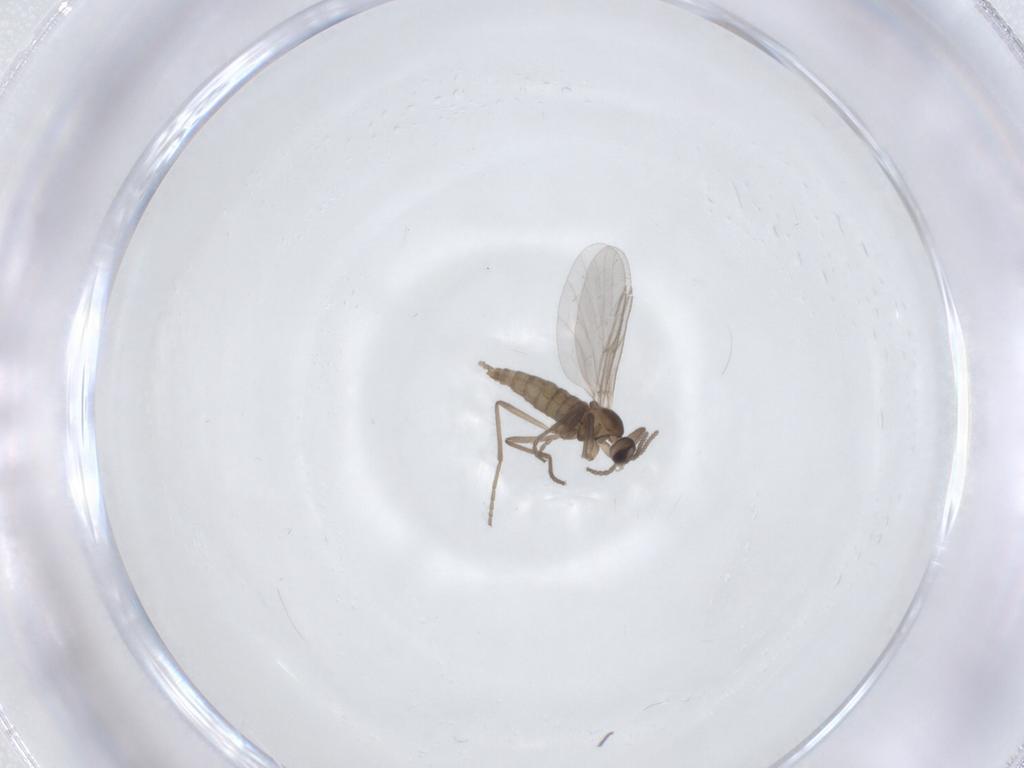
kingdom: Animalia
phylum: Arthropoda
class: Insecta
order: Diptera
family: Cecidomyiidae
